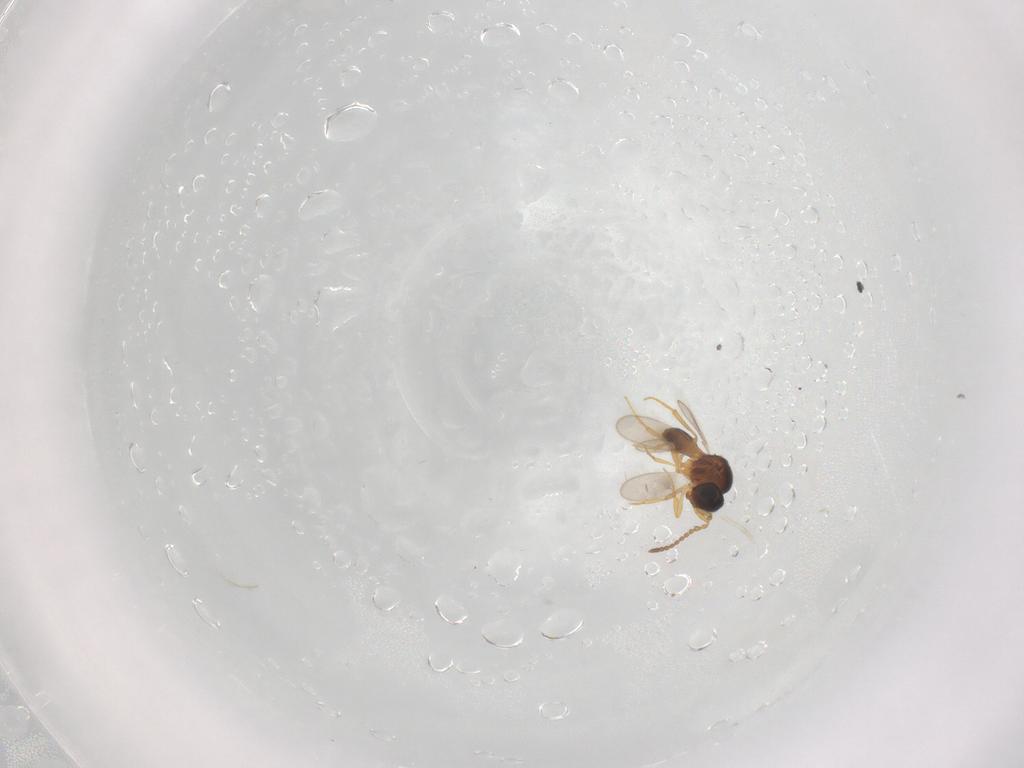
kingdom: Animalia
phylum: Arthropoda
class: Insecta
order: Hymenoptera
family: Scelionidae
